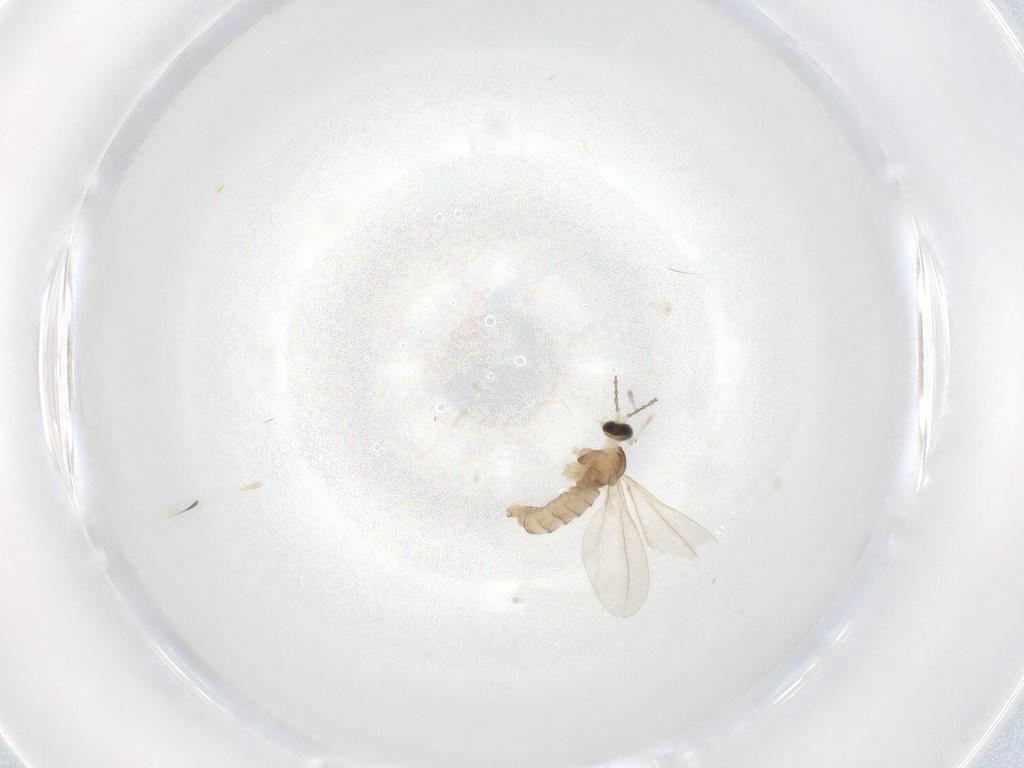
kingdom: Animalia
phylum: Arthropoda
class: Insecta
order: Diptera
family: Cecidomyiidae
